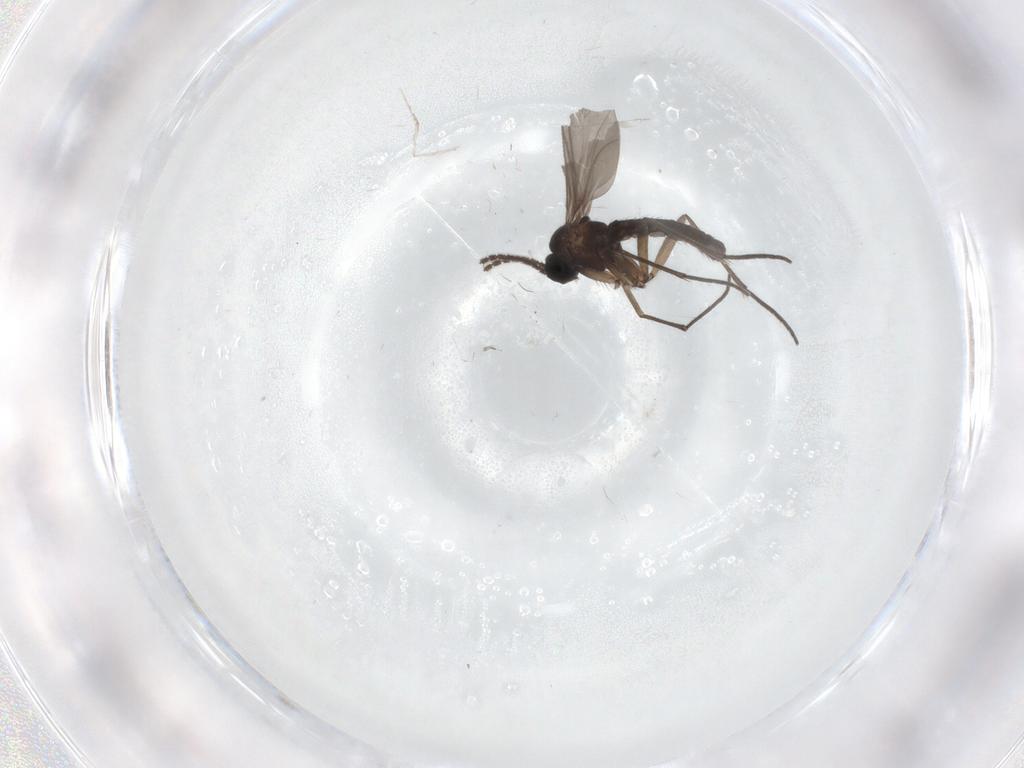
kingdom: Animalia
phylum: Arthropoda
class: Insecta
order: Diptera
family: Sciaridae
